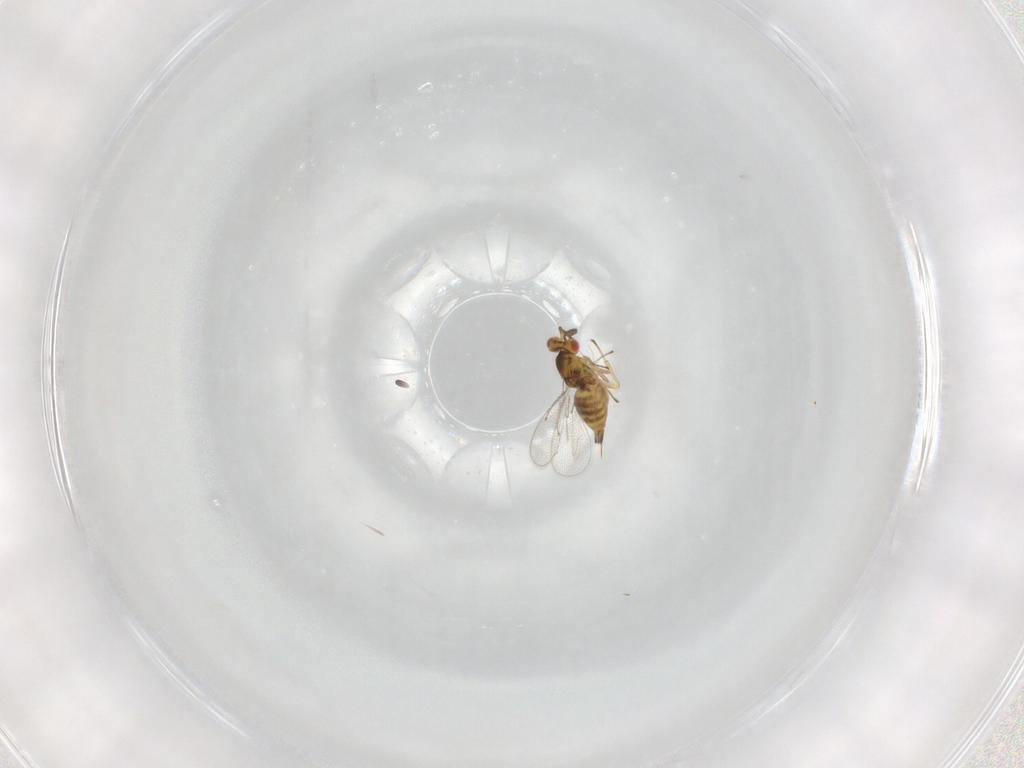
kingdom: Animalia
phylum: Arthropoda
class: Insecta
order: Hymenoptera
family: Eulophidae
